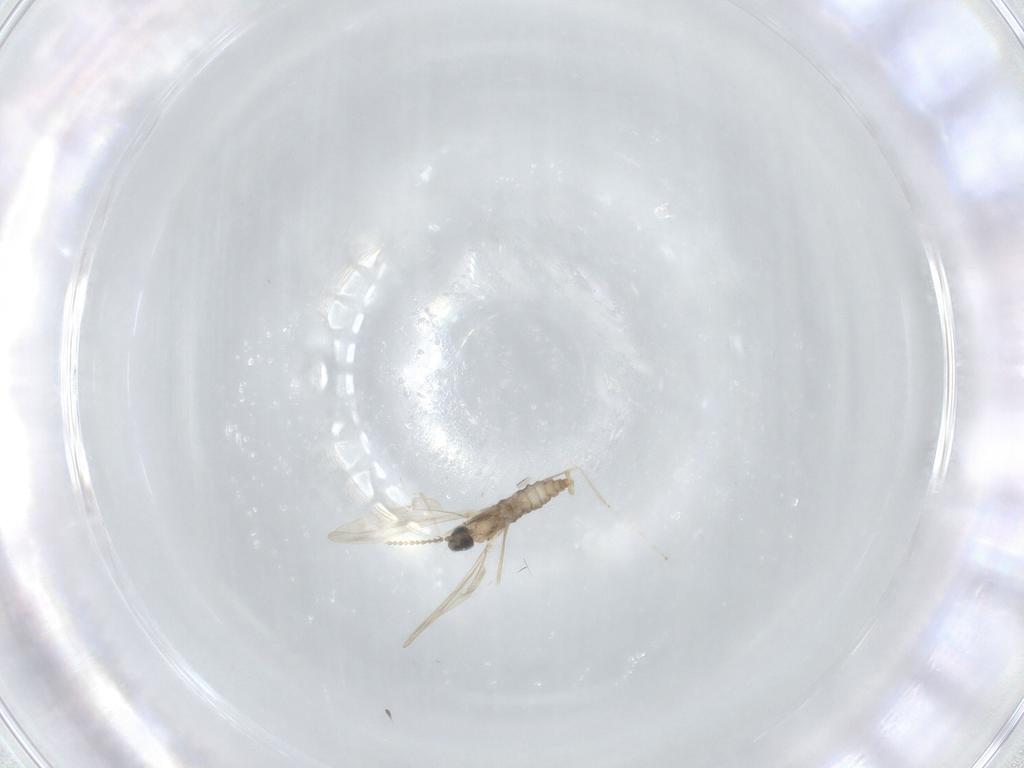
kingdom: Animalia
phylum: Arthropoda
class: Insecta
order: Diptera
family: Cecidomyiidae
